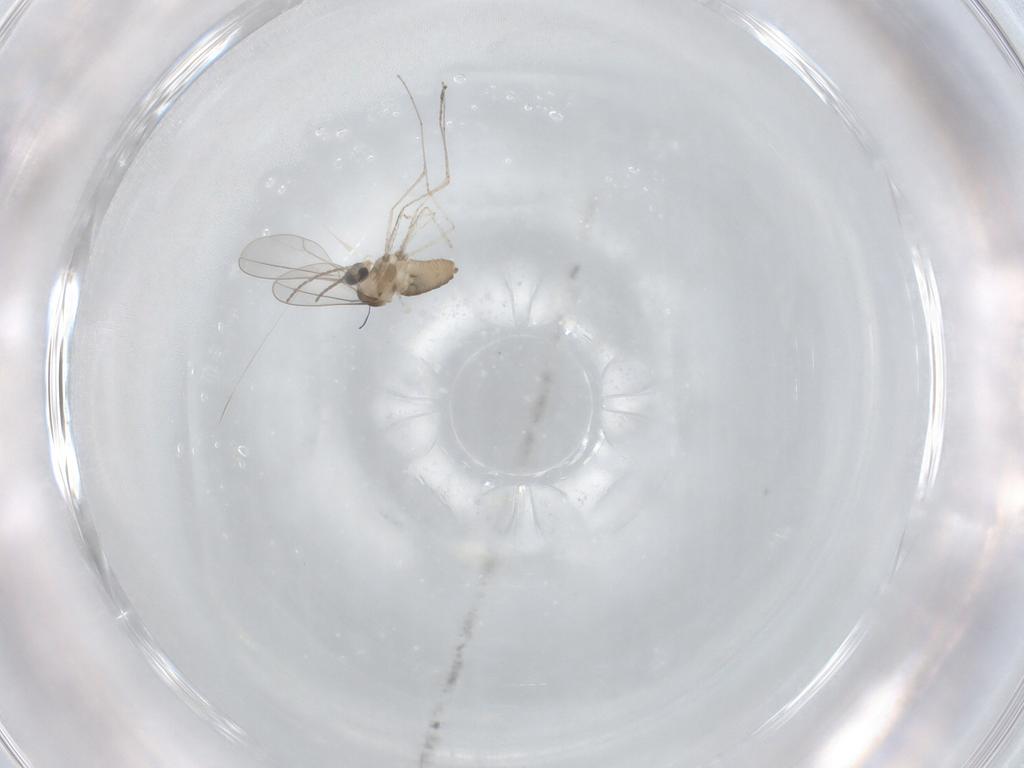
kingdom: Animalia
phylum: Arthropoda
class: Insecta
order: Diptera
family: Cecidomyiidae
